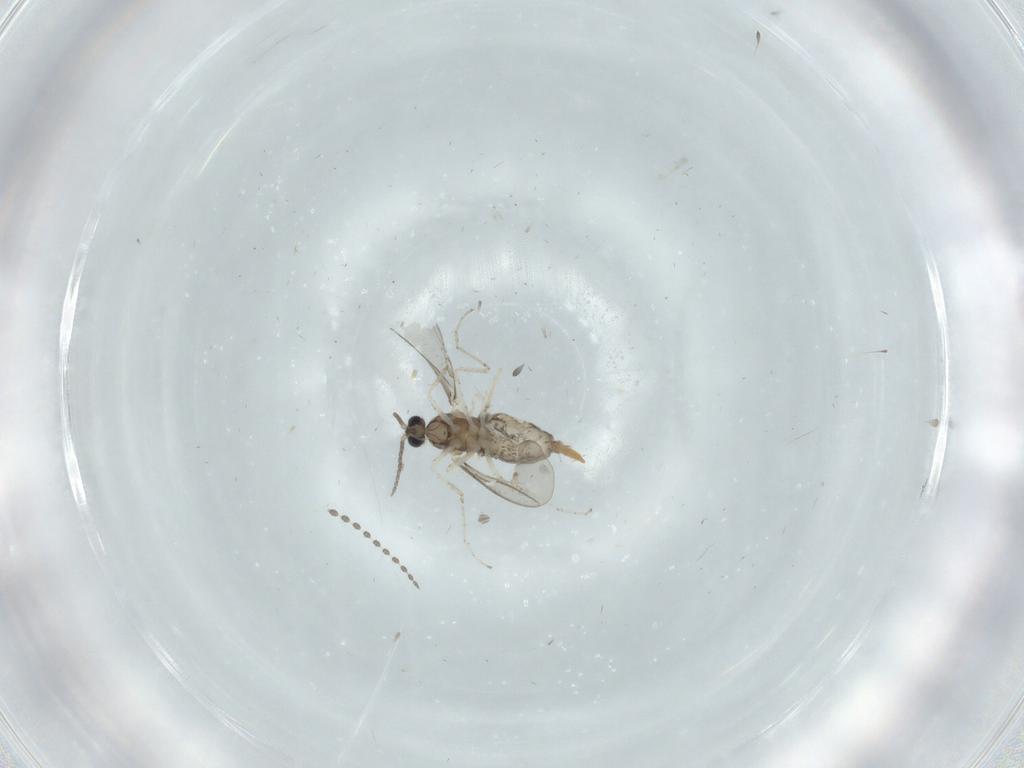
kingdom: Animalia
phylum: Arthropoda
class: Insecta
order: Diptera
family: Cecidomyiidae
